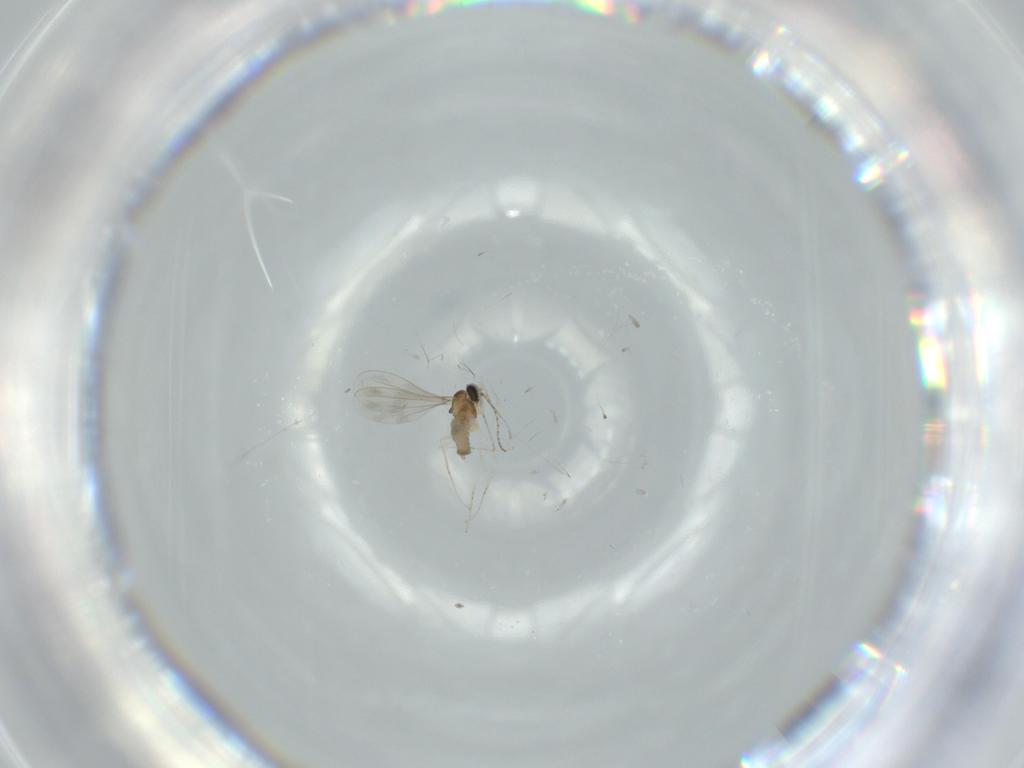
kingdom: Animalia
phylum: Arthropoda
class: Insecta
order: Diptera
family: Cecidomyiidae
